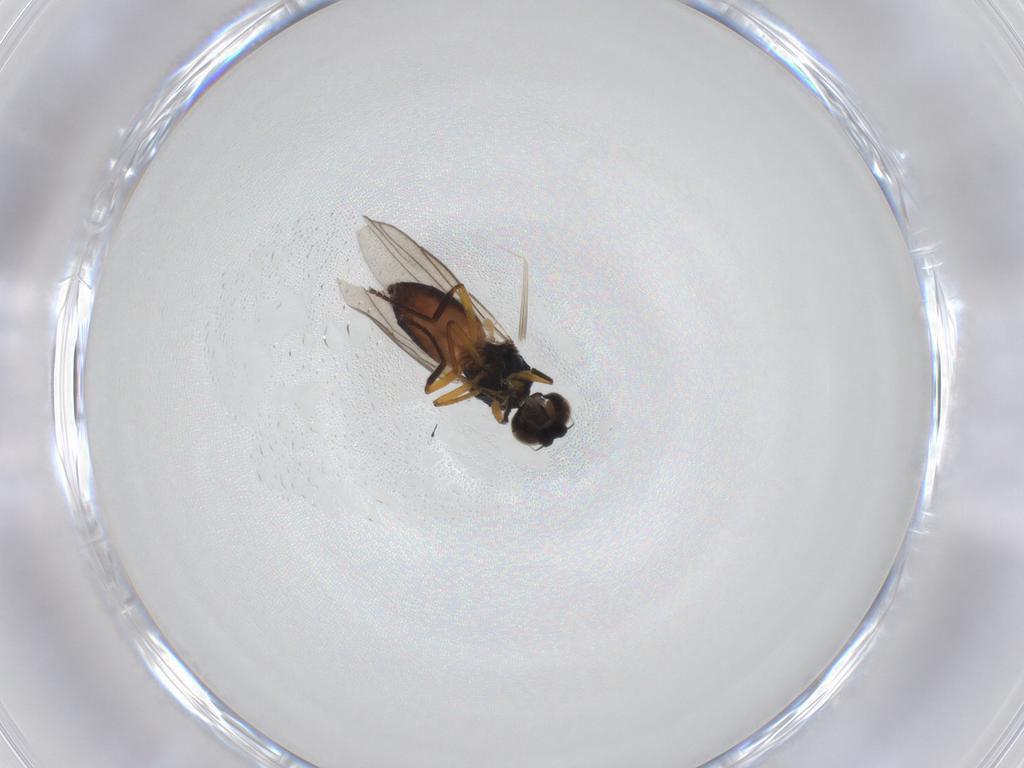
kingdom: Animalia
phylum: Arthropoda
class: Insecta
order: Diptera
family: Chloropidae
